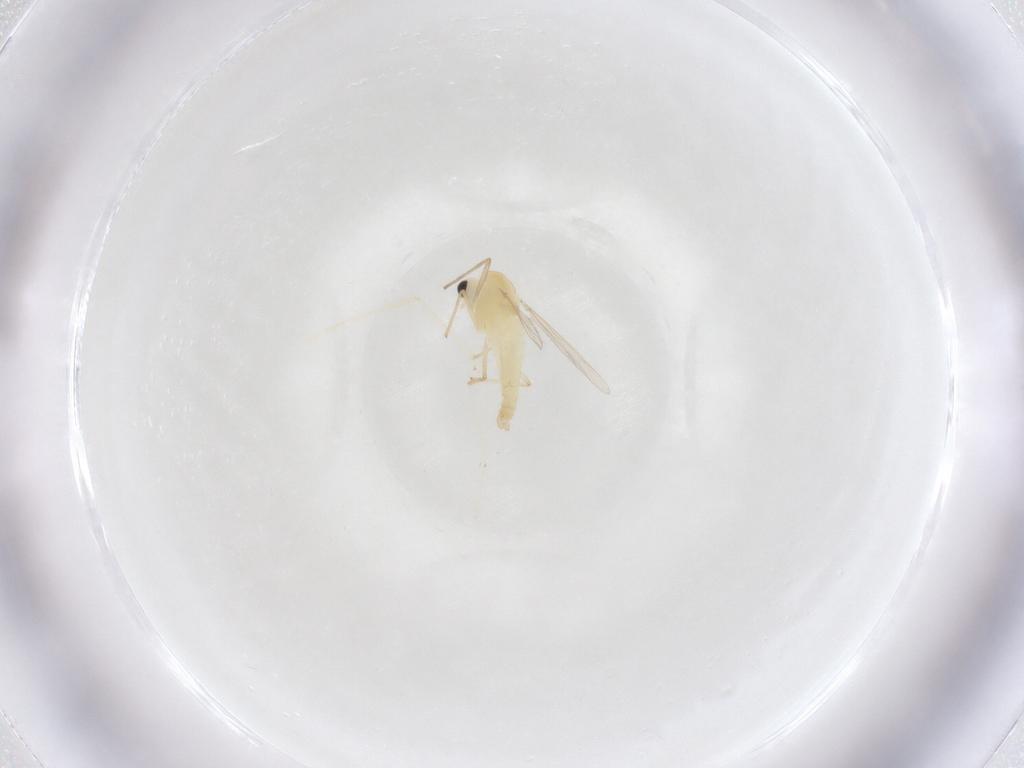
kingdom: Animalia
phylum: Arthropoda
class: Insecta
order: Diptera
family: Chironomidae
